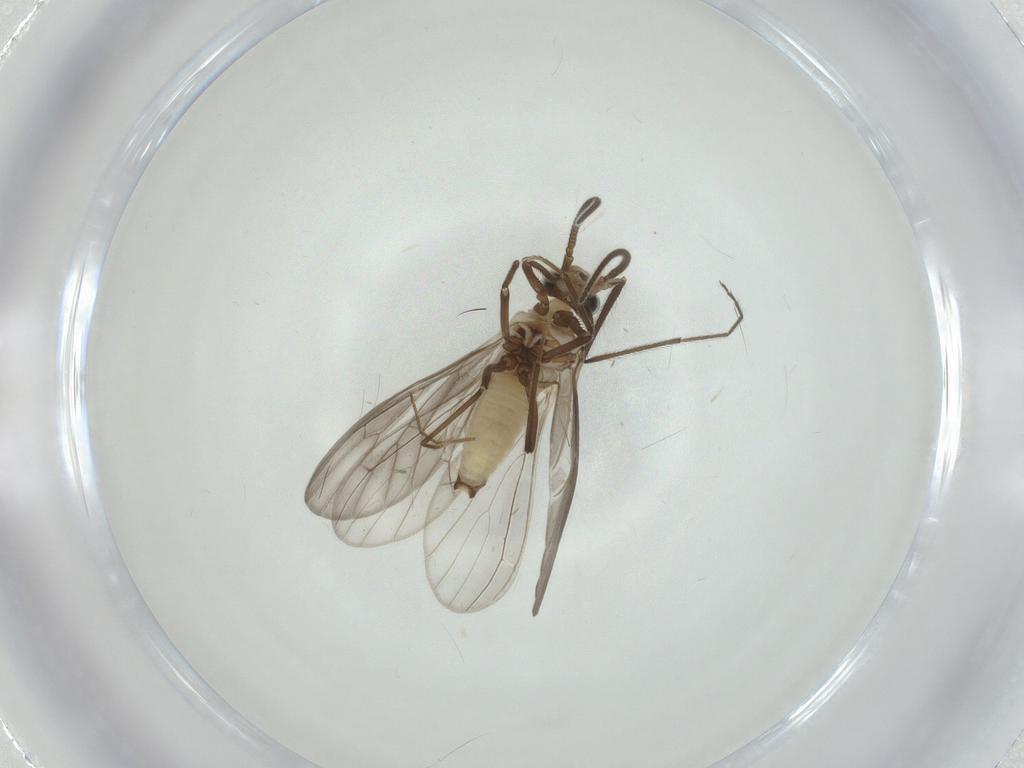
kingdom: Animalia
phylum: Arthropoda
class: Insecta
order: Neuroptera
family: Coniopterygidae
